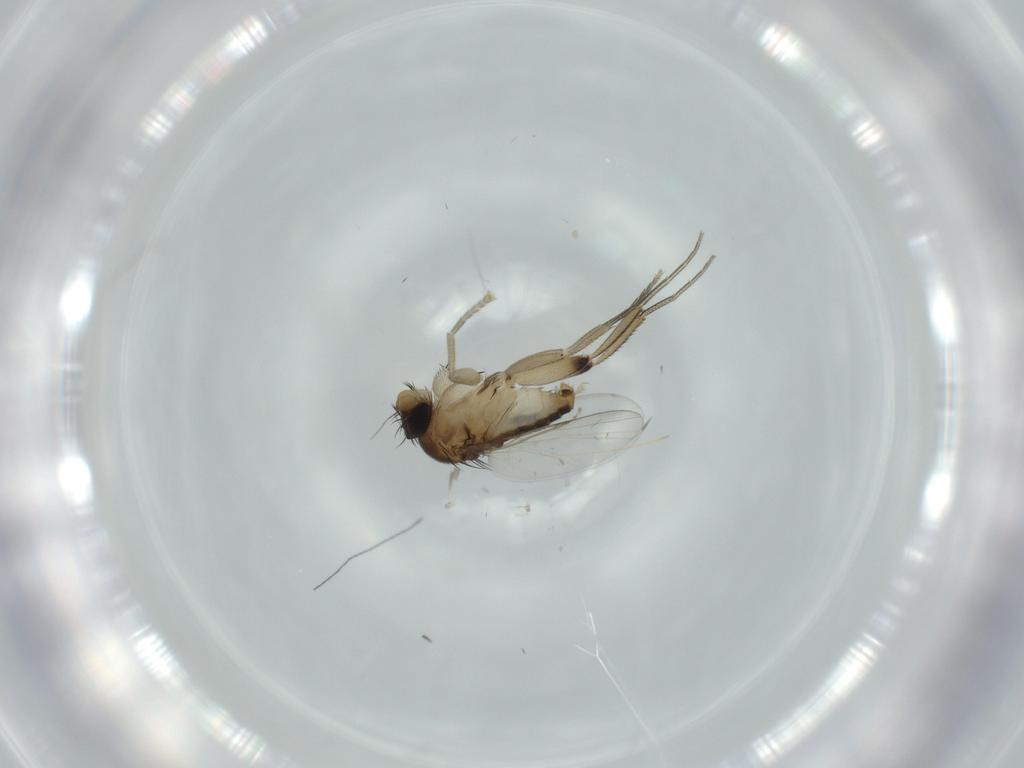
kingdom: Animalia
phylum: Arthropoda
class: Insecta
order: Diptera
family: Phoridae
